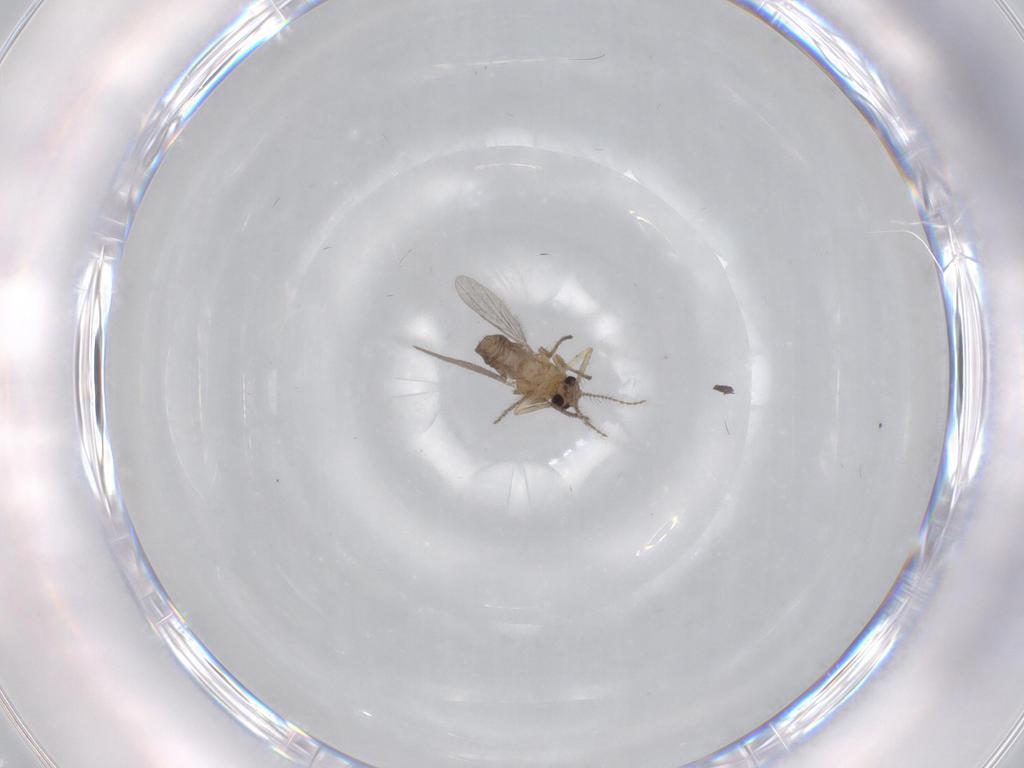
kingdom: Animalia
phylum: Arthropoda
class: Insecta
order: Diptera
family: Ceratopogonidae
